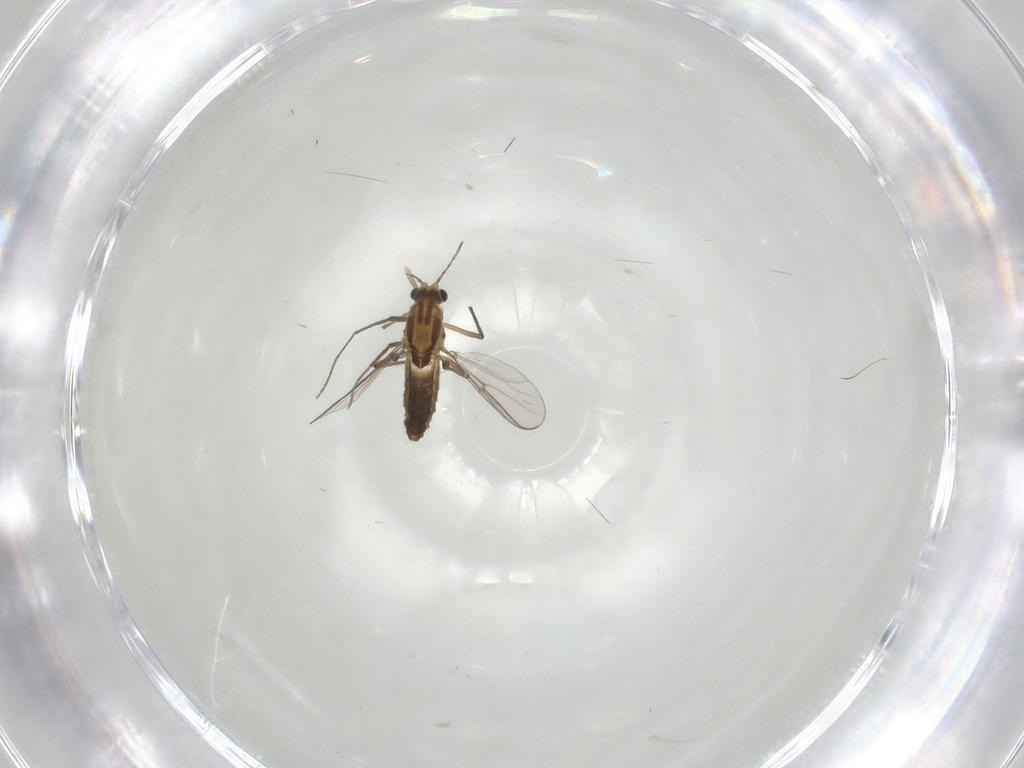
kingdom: Animalia
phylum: Arthropoda
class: Insecta
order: Diptera
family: Chironomidae
